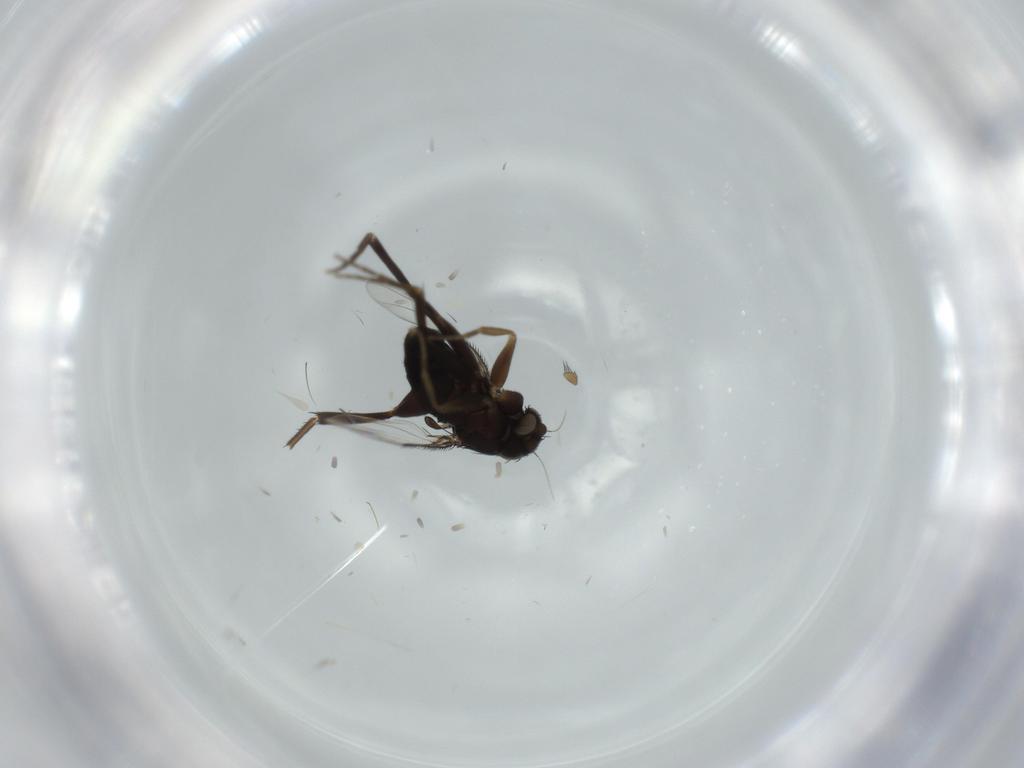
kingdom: Animalia
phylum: Arthropoda
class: Insecta
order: Diptera
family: Phoridae
